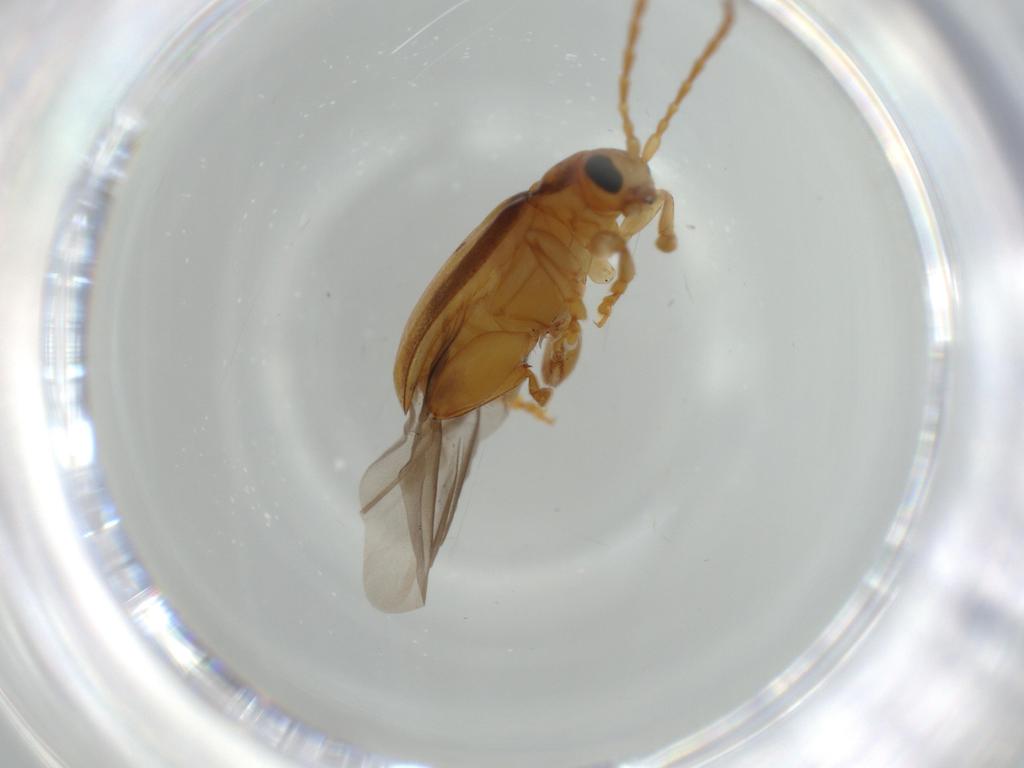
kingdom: Animalia
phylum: Arthropoda
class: Insecta
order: Coleoptera
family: Chrysomelidae
